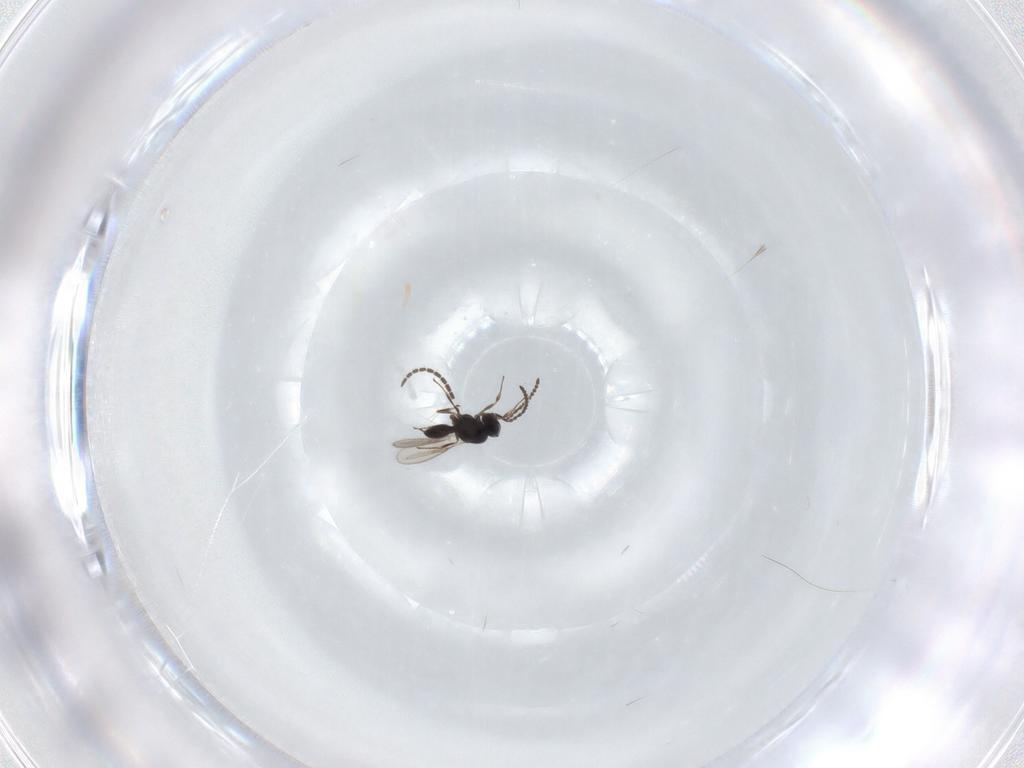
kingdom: Animalia
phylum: Arthropoda
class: Insecta
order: Hymenoptera
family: Scelionidae
